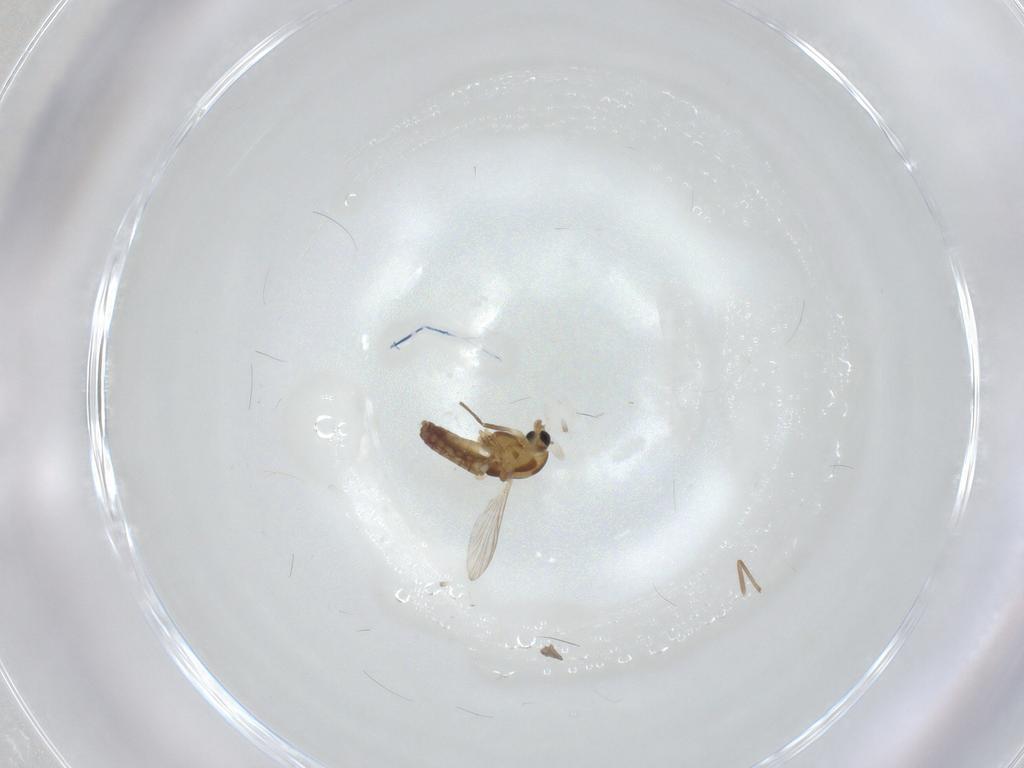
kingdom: Animalia
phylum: Arthropoda
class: Insecta
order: Diptera
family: Chironomidae
